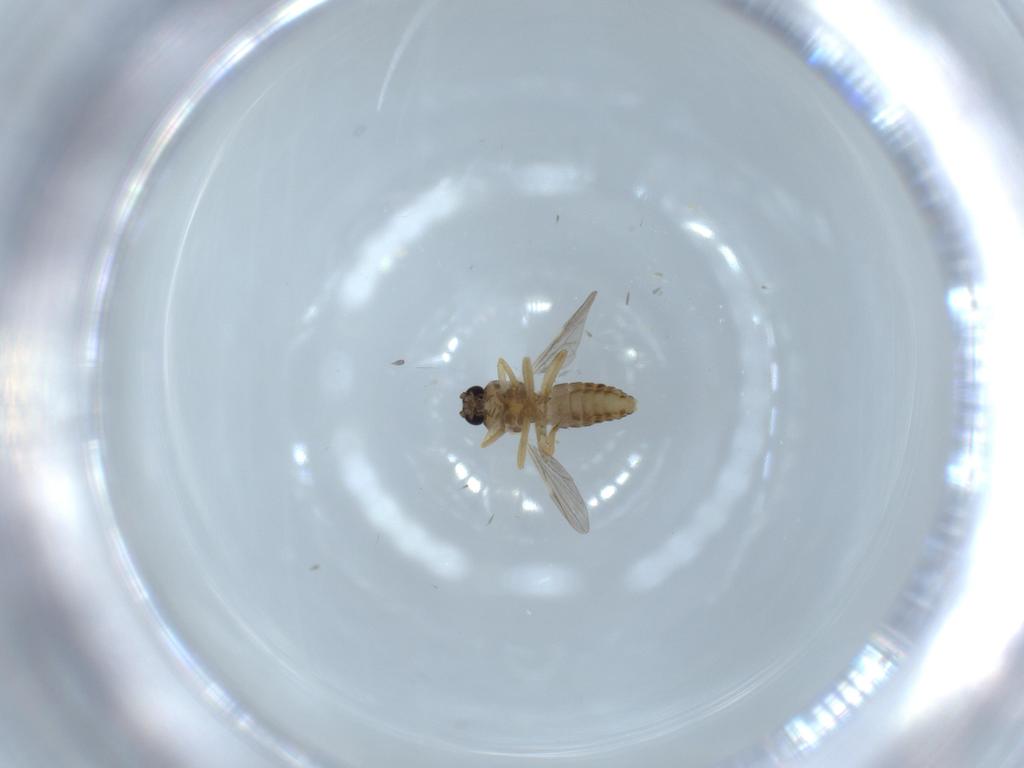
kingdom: Animalia
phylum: Arthropoda
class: Insecta
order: Diptera
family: Ceratopogonidae
